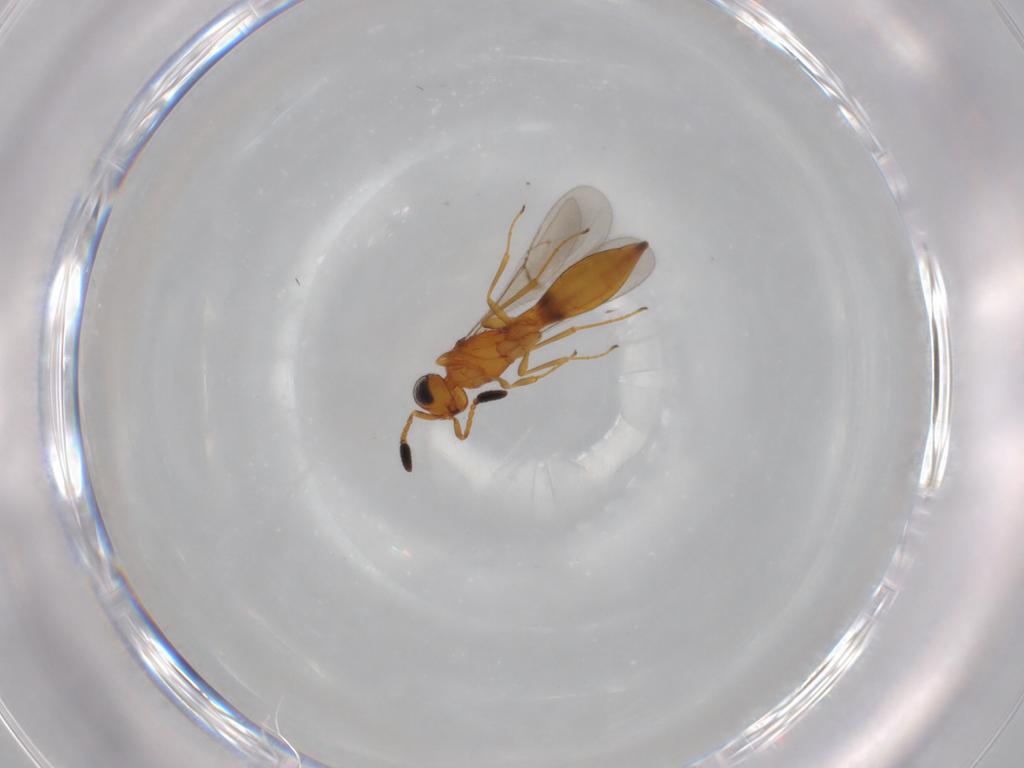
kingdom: Animalia
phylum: Arthropoda
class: Insecta
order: Hymenoptera
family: Scelionidae
